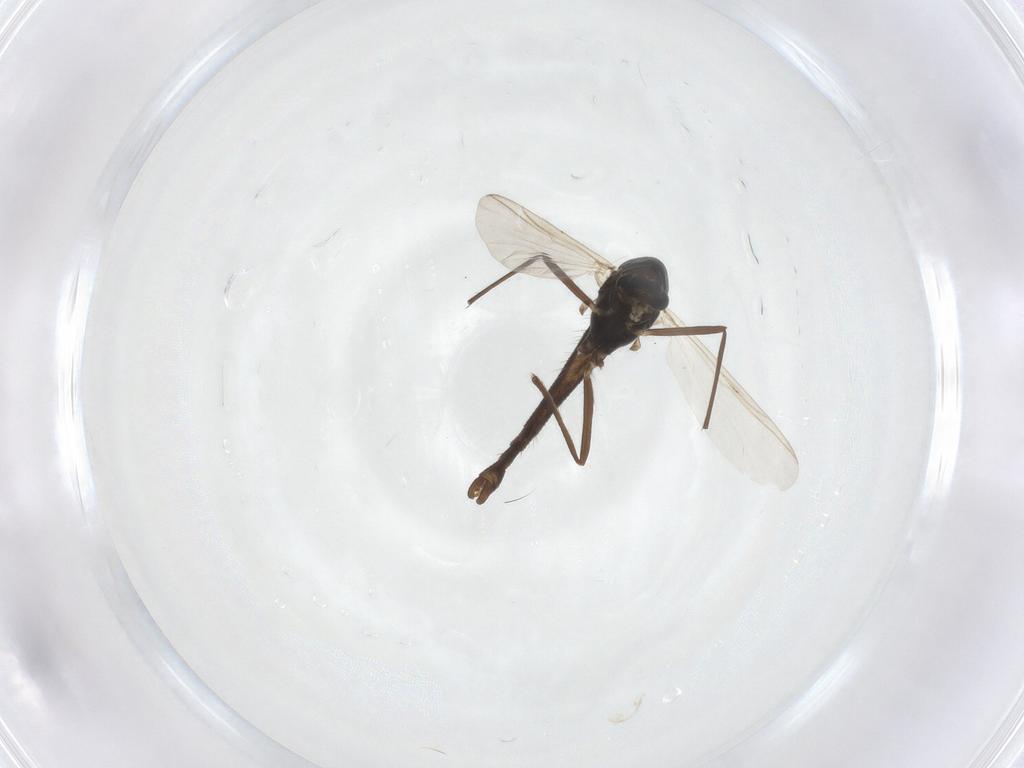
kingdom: Animalia
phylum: Arthropoda
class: Insecta
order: Diptera
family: Chironomidae
